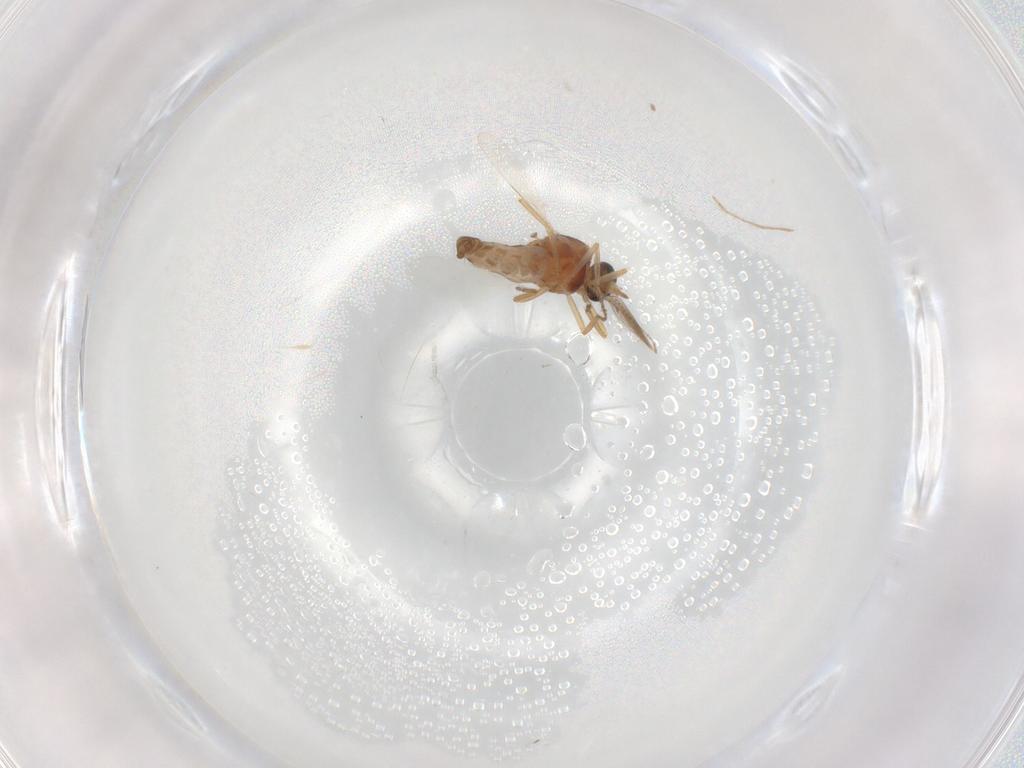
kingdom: Animalia
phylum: Arthropoda
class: Insecta
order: Diptera
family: Ceratopogonidae
